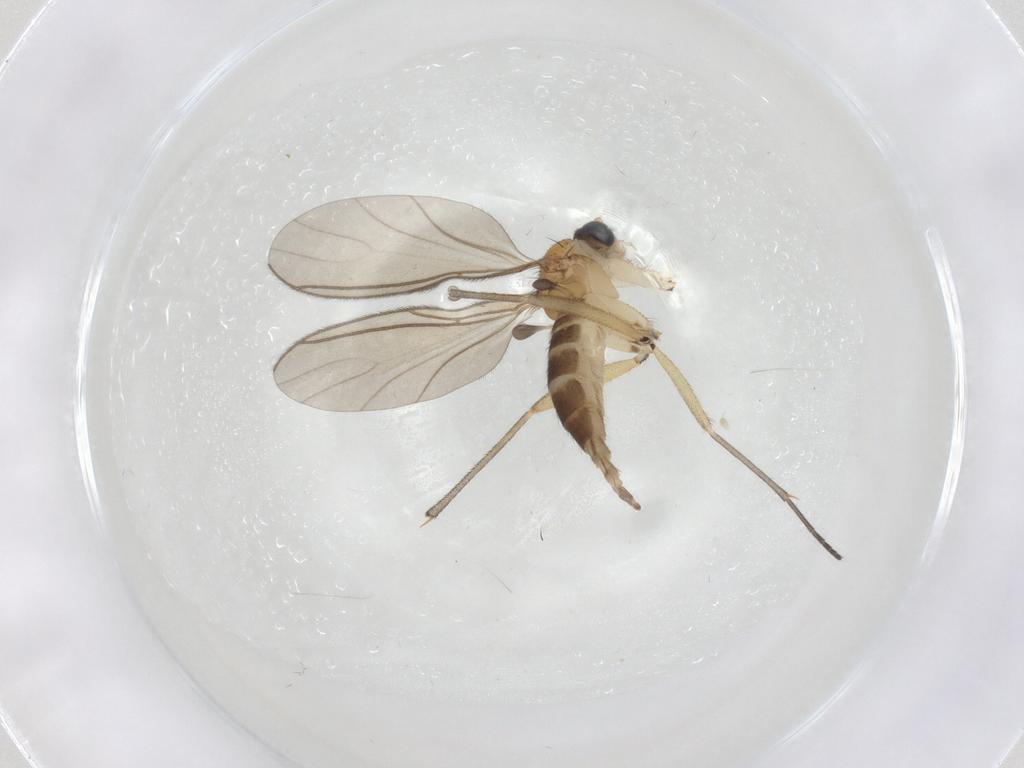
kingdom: Animalia
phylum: Arthropoda
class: Insecta
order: Diptera
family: Sciaridae
